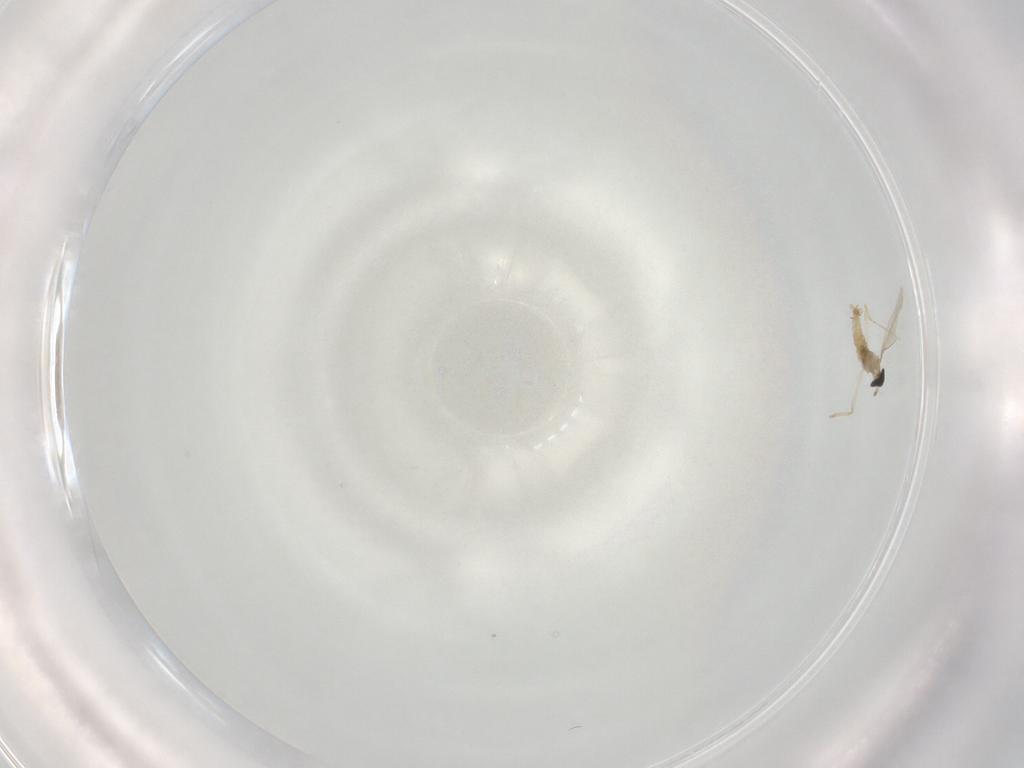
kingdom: Animalia
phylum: Arthropoda
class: Insecta
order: Diptera
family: Cecidomyiidae
